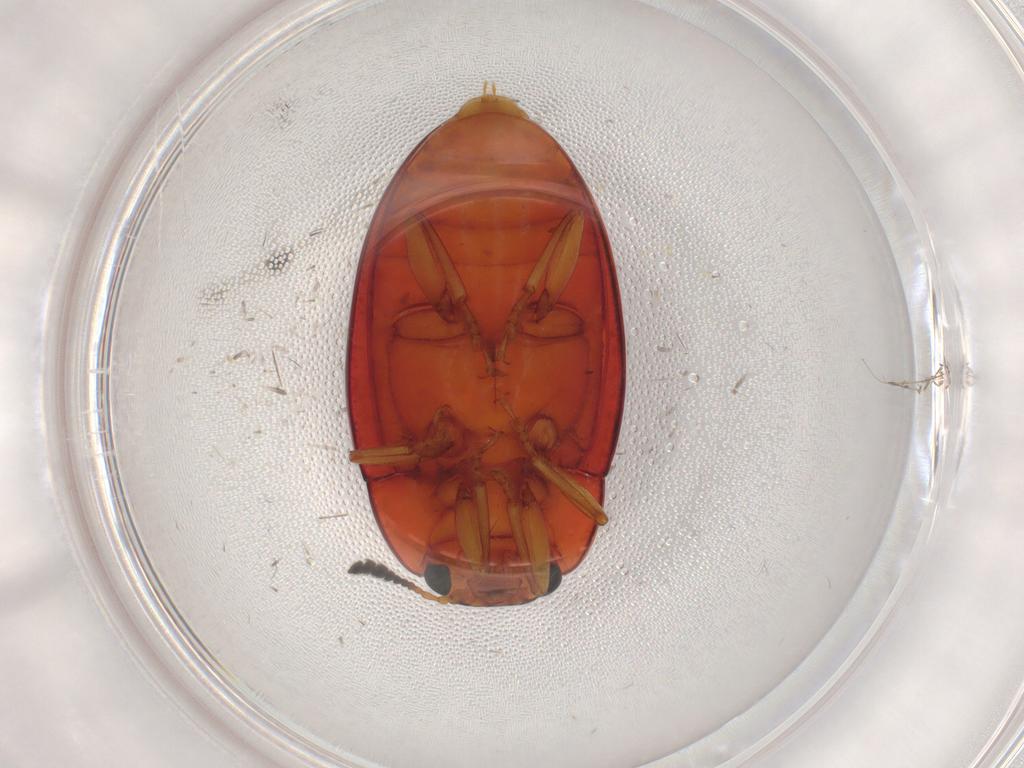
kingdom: Animalia
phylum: Arthropoda
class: Insecta
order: Coleoptera
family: Erotylidae
